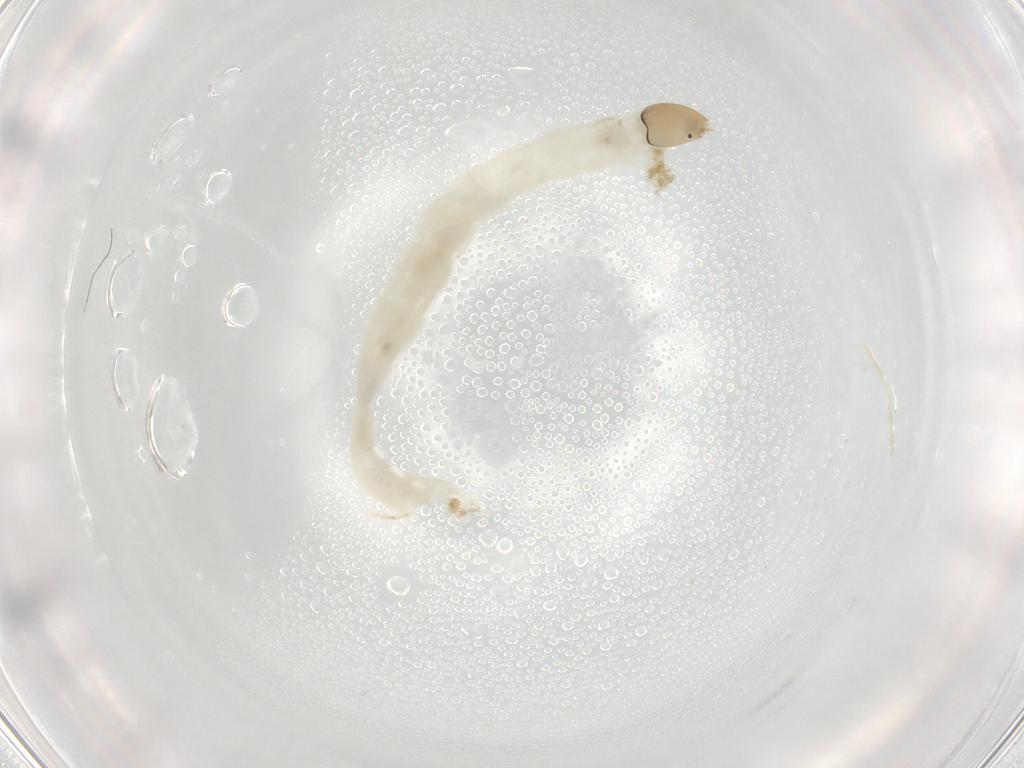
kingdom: Animalia
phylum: Arthropoda
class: Insecta
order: Diptera
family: Chironomidae
